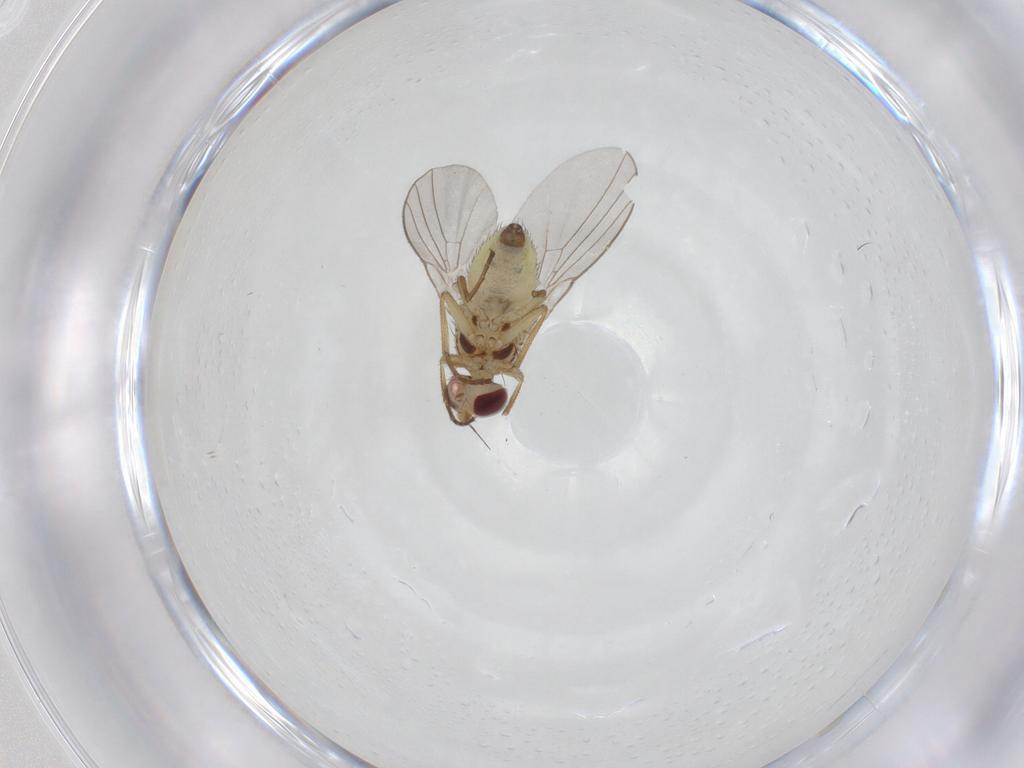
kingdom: Animalia
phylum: Arthropoda
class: Insecta
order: Diptera
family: Agromyzidae
